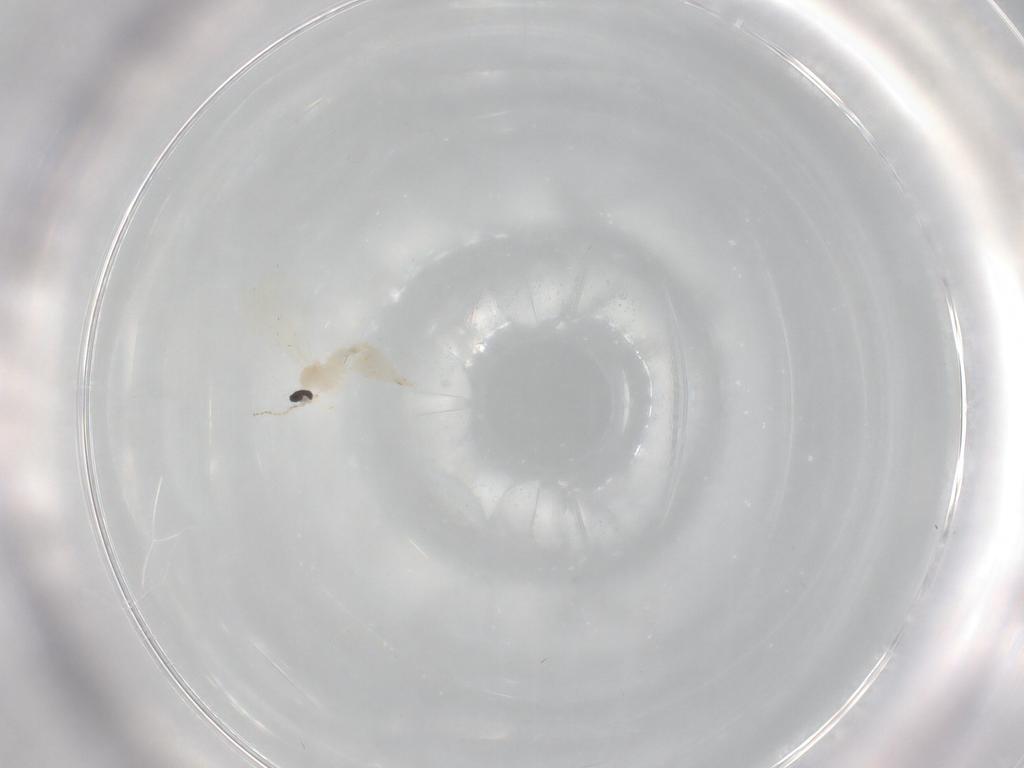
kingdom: Animalia
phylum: Arthropoda
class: Insecta
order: Diptera
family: Cecidomyiidae
